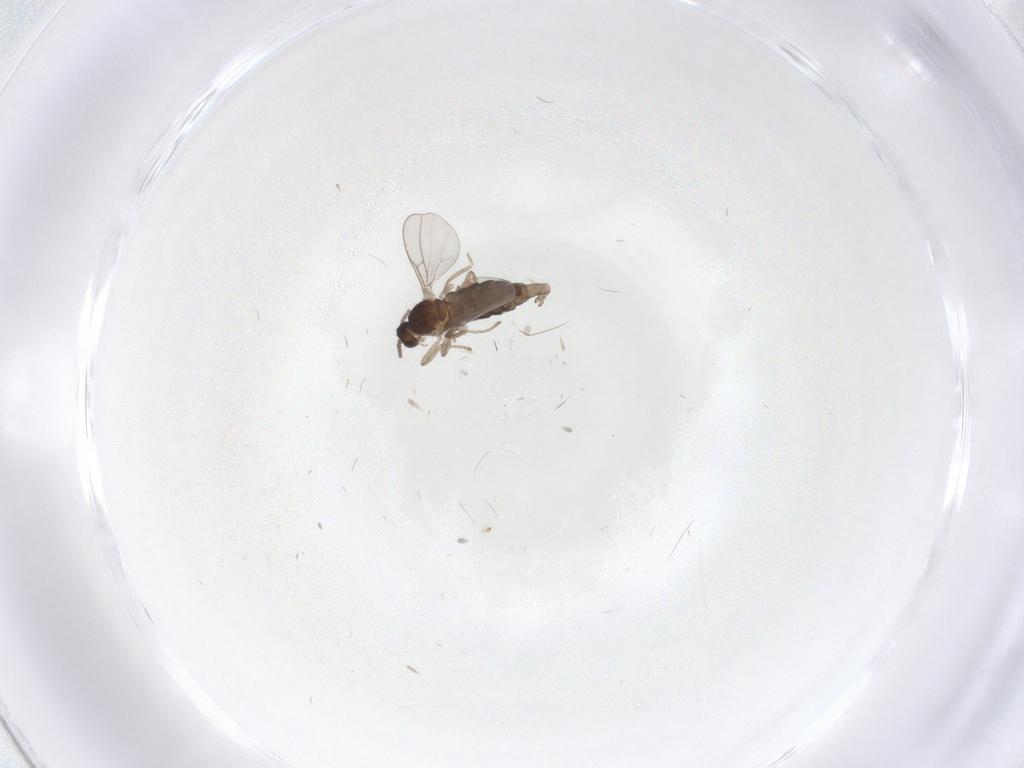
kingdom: Animalia
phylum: Arthropoda
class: Insecta
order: Diptera
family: Cecidomyiidae
